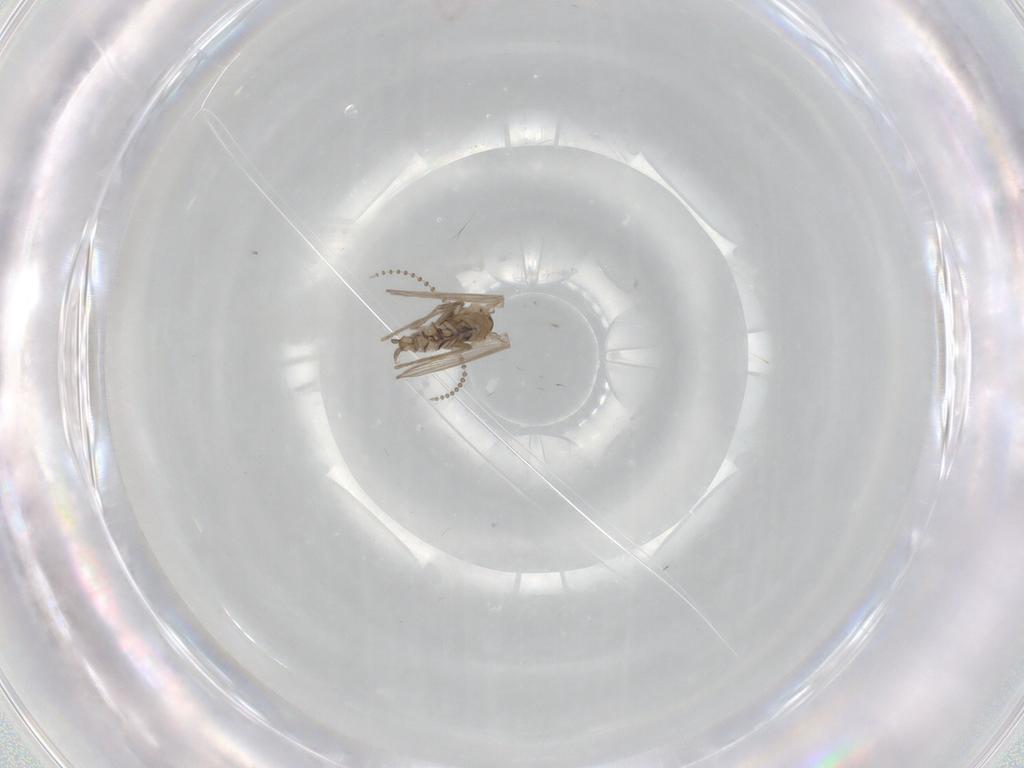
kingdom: Animalia
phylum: Arthropoda
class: Insecta
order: Diptera
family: Psychodidae
